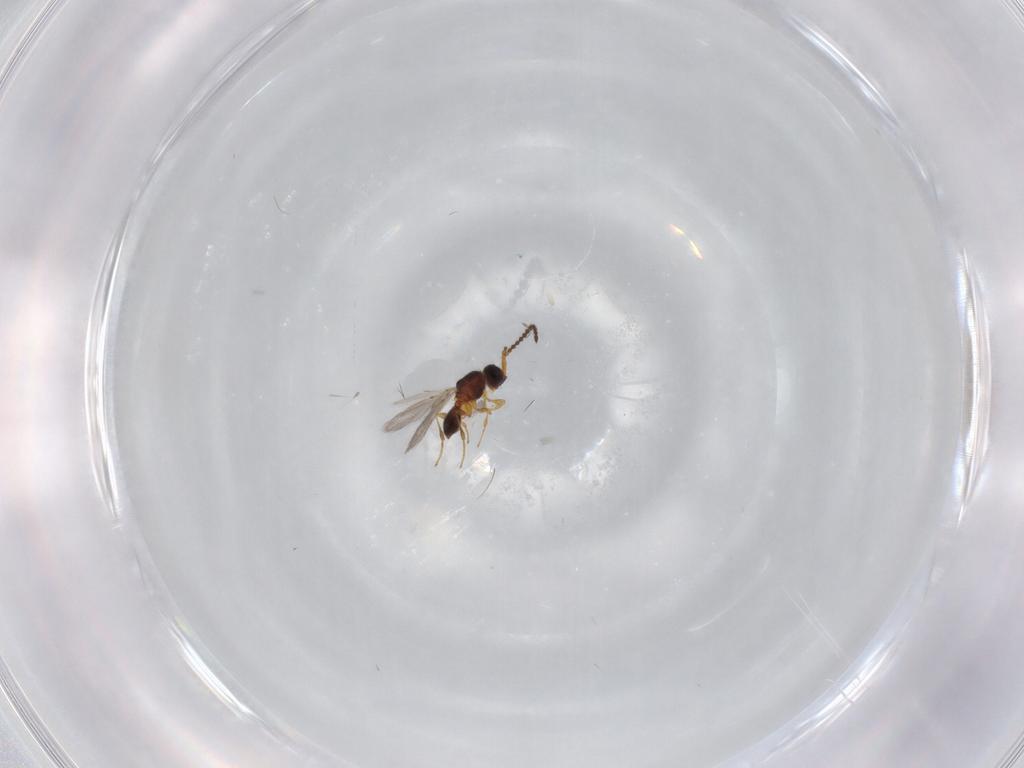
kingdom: Animalia
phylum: Arthropoda
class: Insecta
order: Hymenoptera
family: Diapriidae
